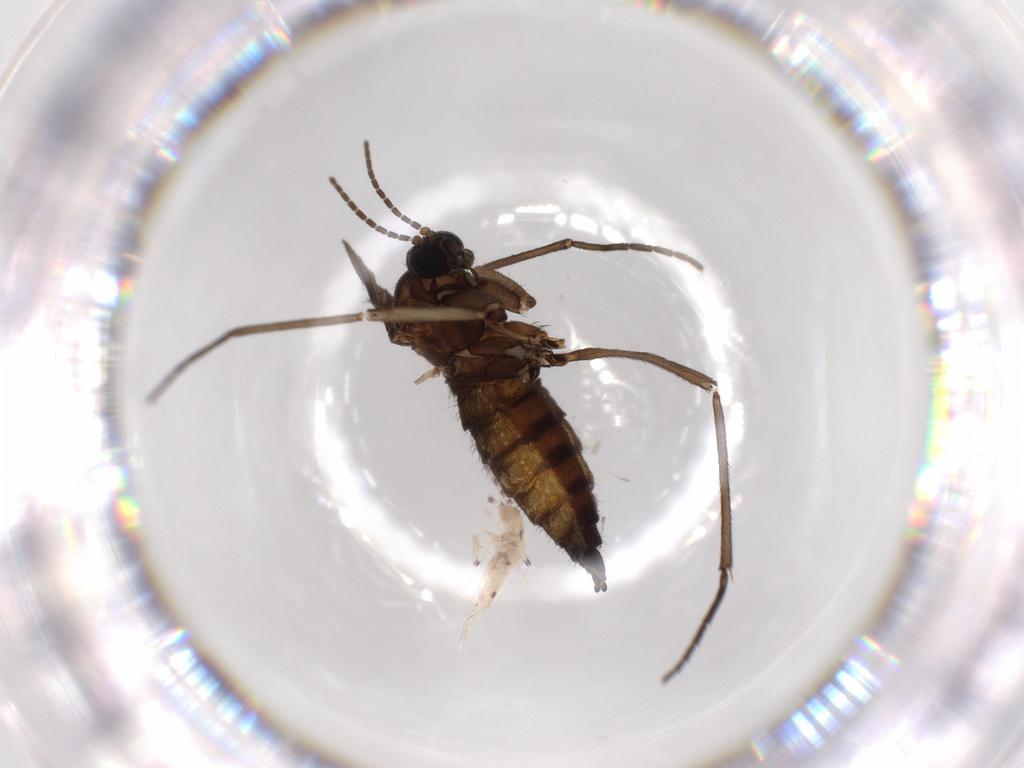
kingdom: Animalia
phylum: Arthropoda
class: Insecta
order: Diptera
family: Sciaridae
